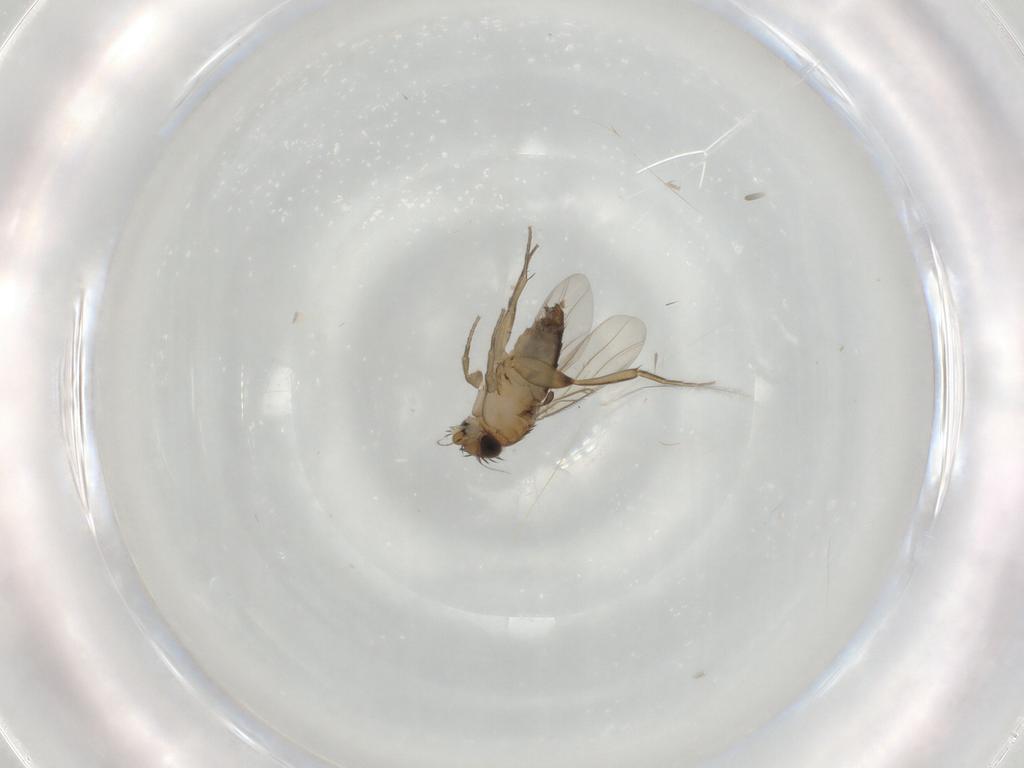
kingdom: Animalia
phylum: Arthropoda
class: Insecta
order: Diptera
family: Phoridae
